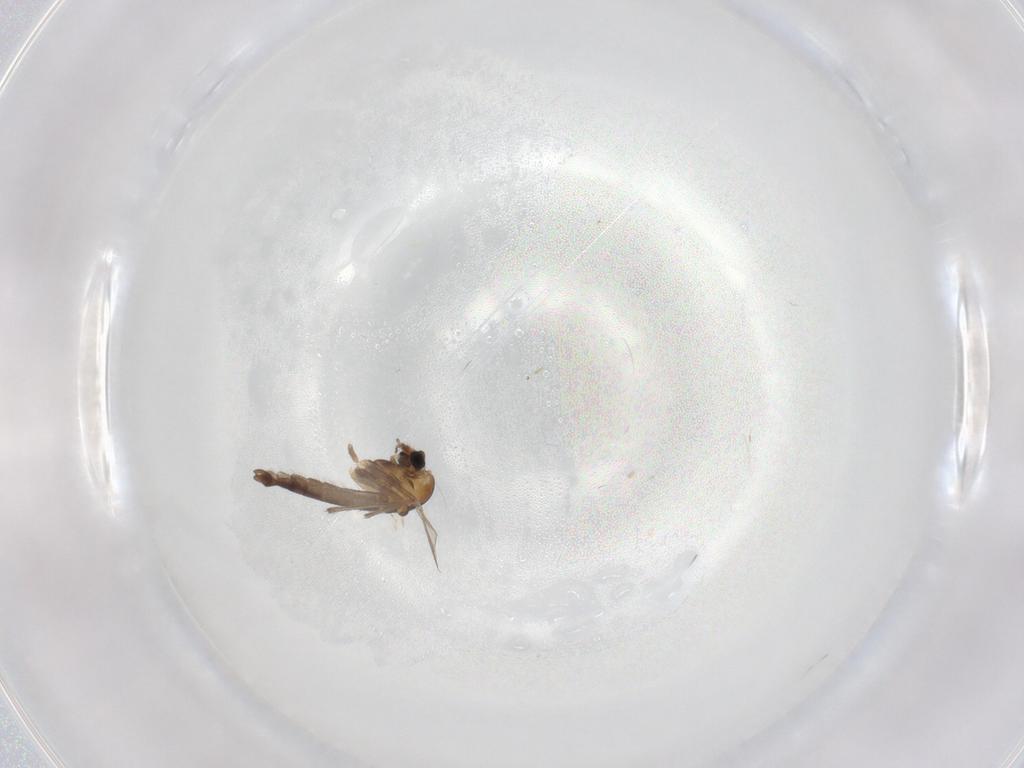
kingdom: Animalia
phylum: Arthropoda
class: Insecta
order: Diptera
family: Chironomidae
